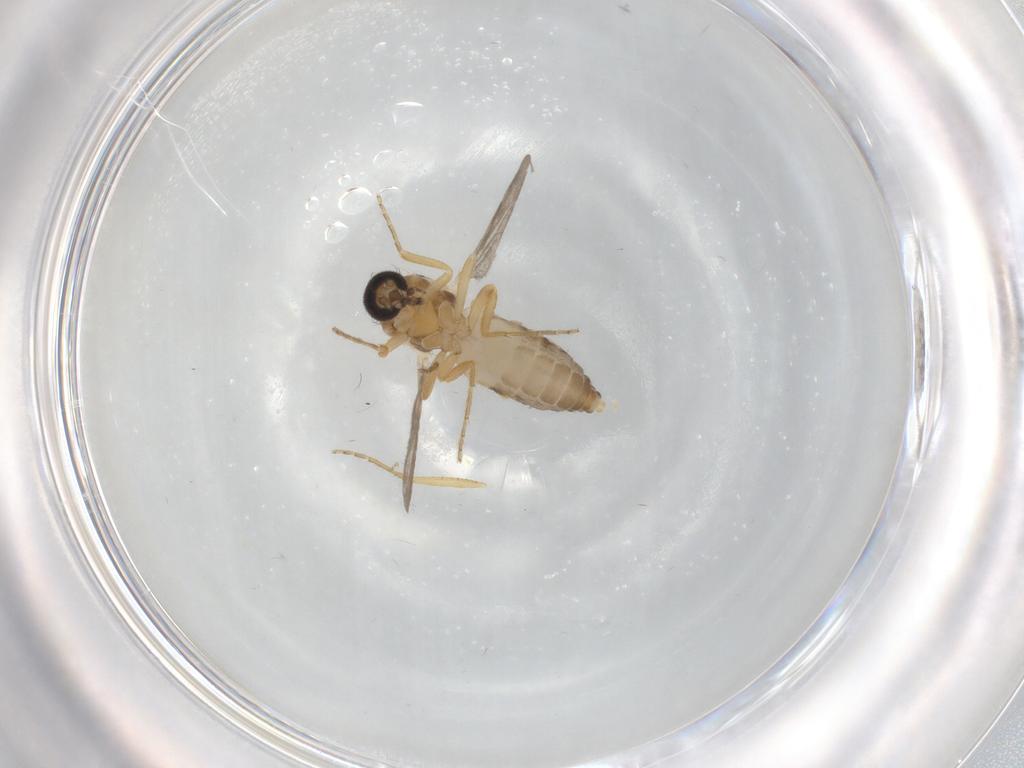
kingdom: Animalia
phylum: Arthropoda
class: Insecta
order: Diptera
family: Ceratopogonidae
